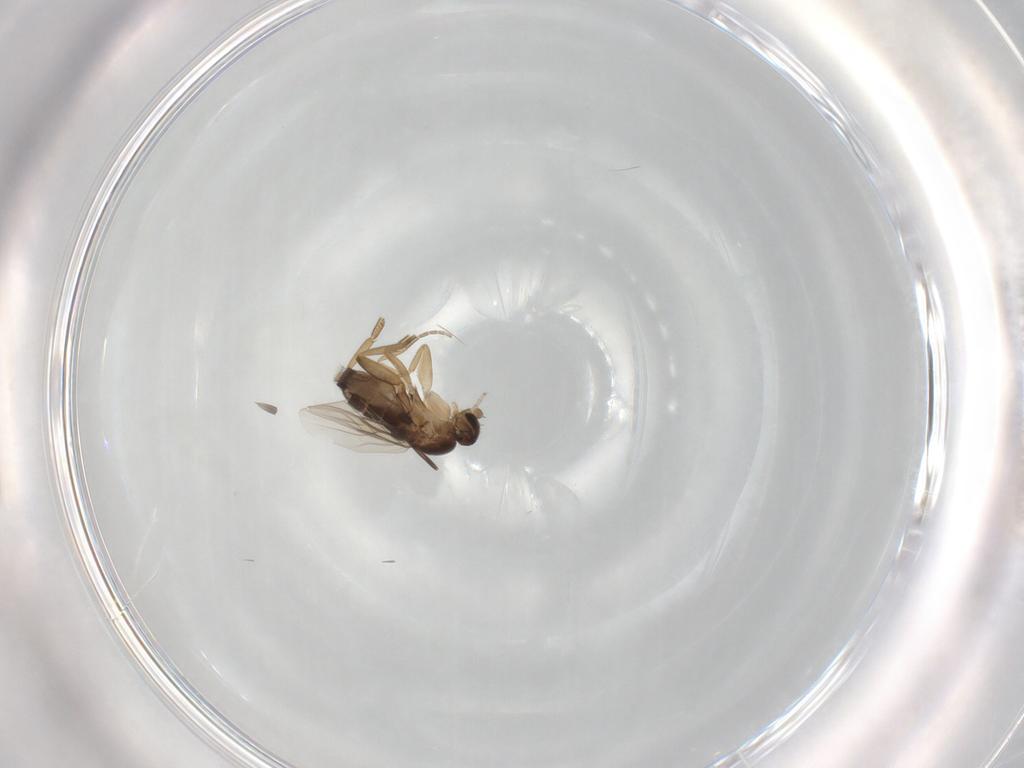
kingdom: Animalia
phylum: Arthropoda
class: Insecta
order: Diptera
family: Phoridae
